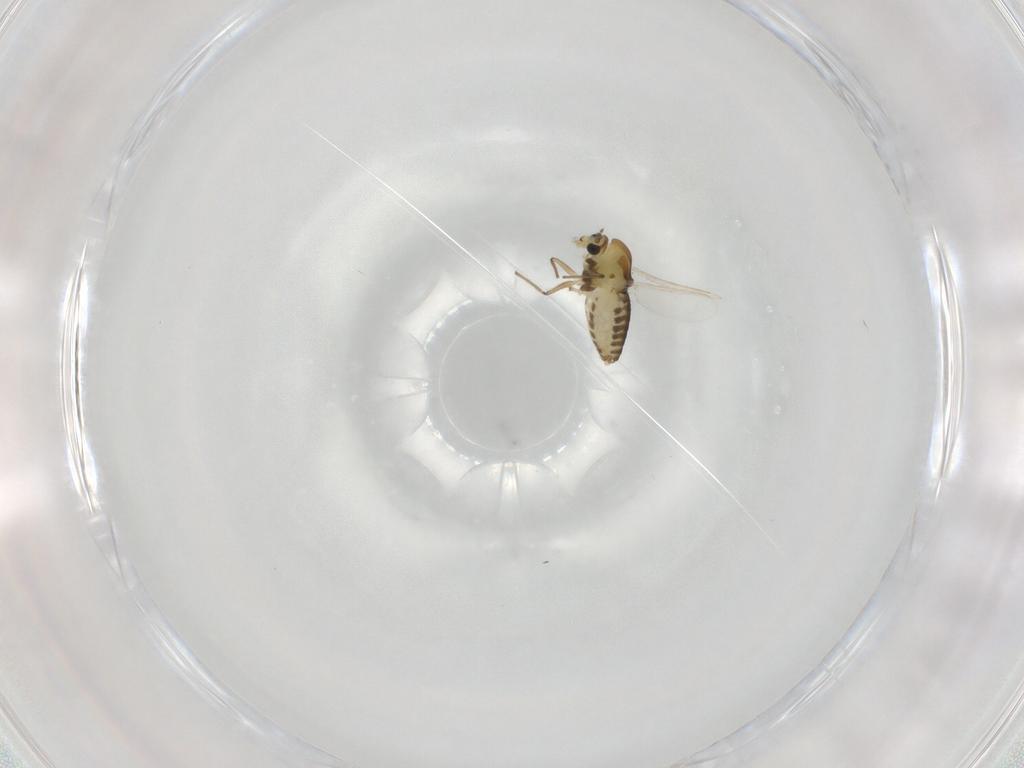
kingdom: Animalia
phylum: Arthropoda
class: Insecta
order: Diptera
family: Chironomidae
